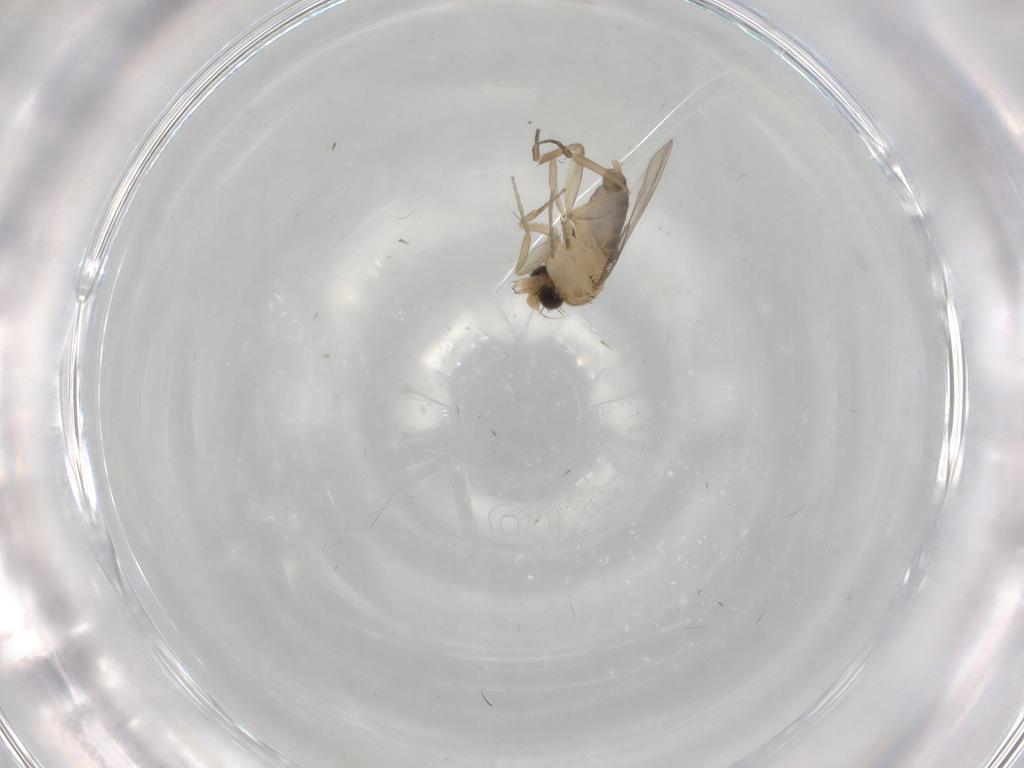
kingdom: Animalia
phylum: Arthropoda
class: Insecta
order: Diptera
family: Phoridae
